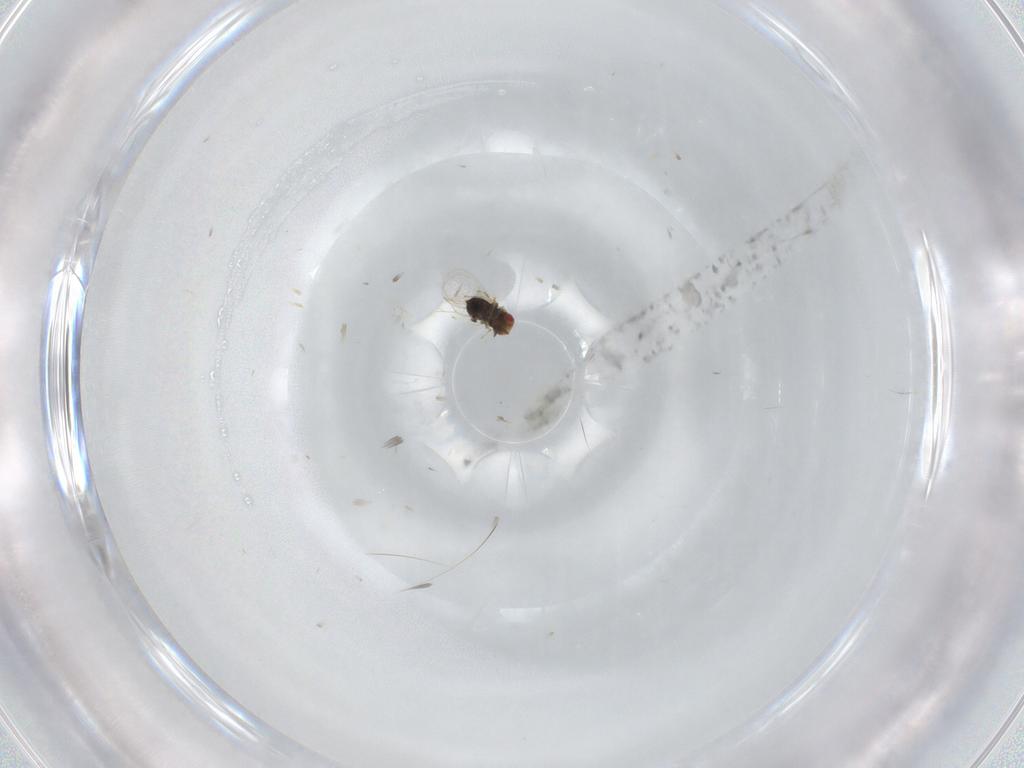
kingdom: Animalia
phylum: Arthropoda
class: Insecta
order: Hymenoptera
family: Trichogrammatidae
